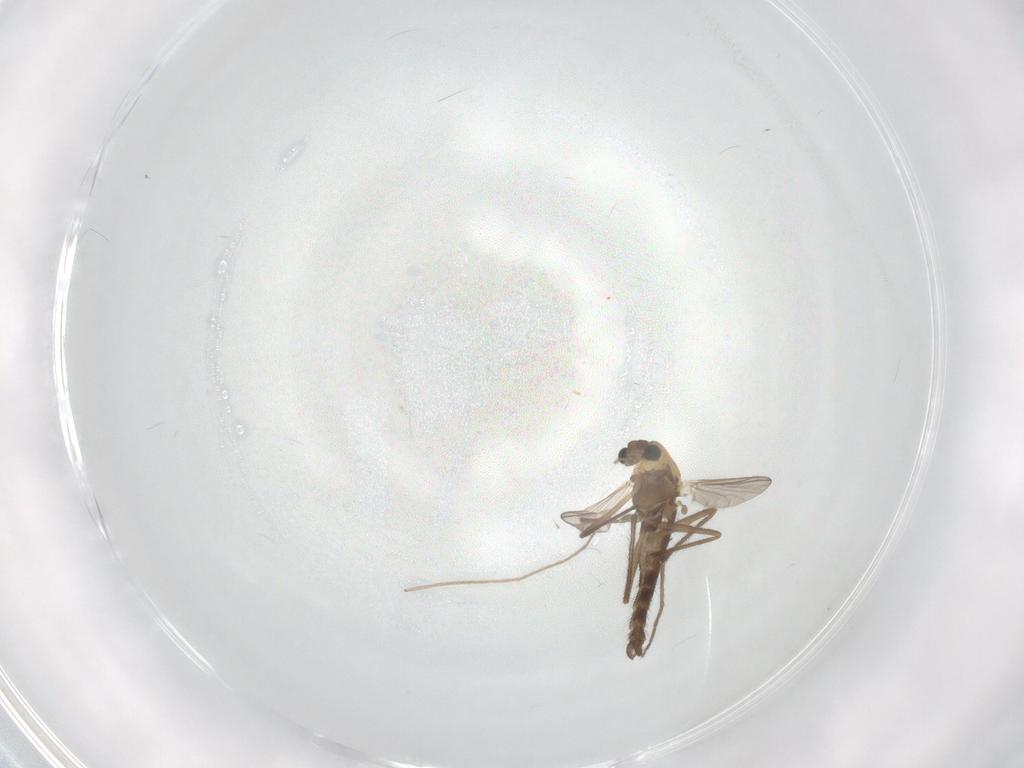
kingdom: Animalia
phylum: Arthropoda
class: Insecta
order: Diptera
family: Chironomidae
